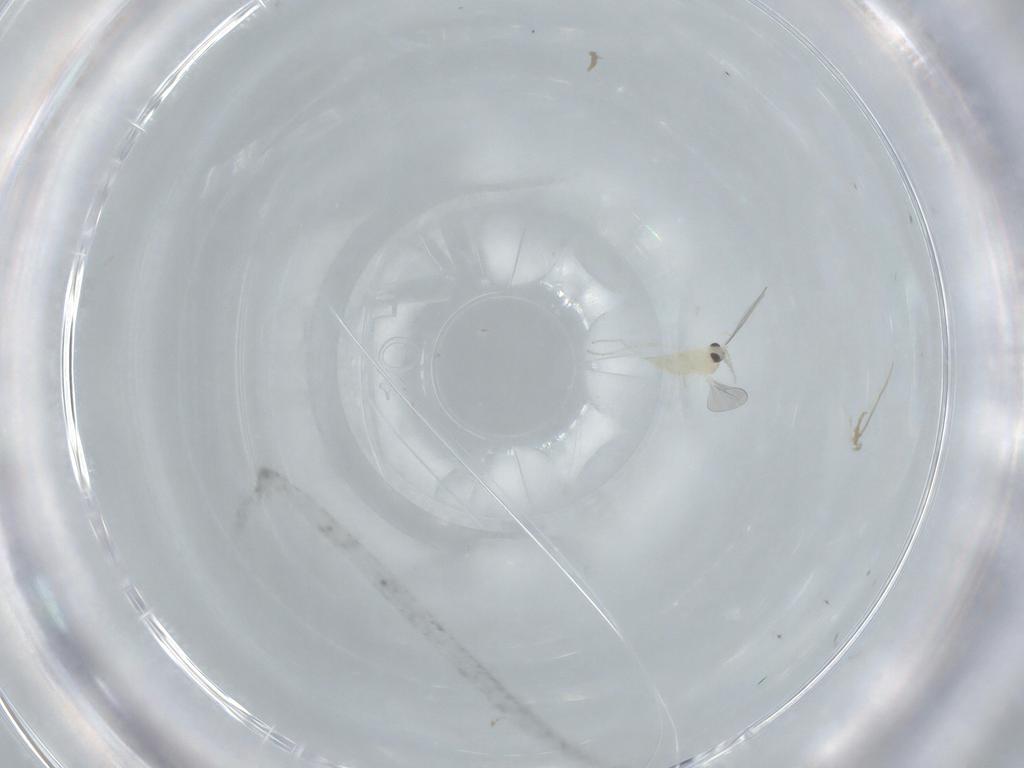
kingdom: Animalia
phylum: Arthropoda
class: Insecta
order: Diptera
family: Cecidomyiidae
